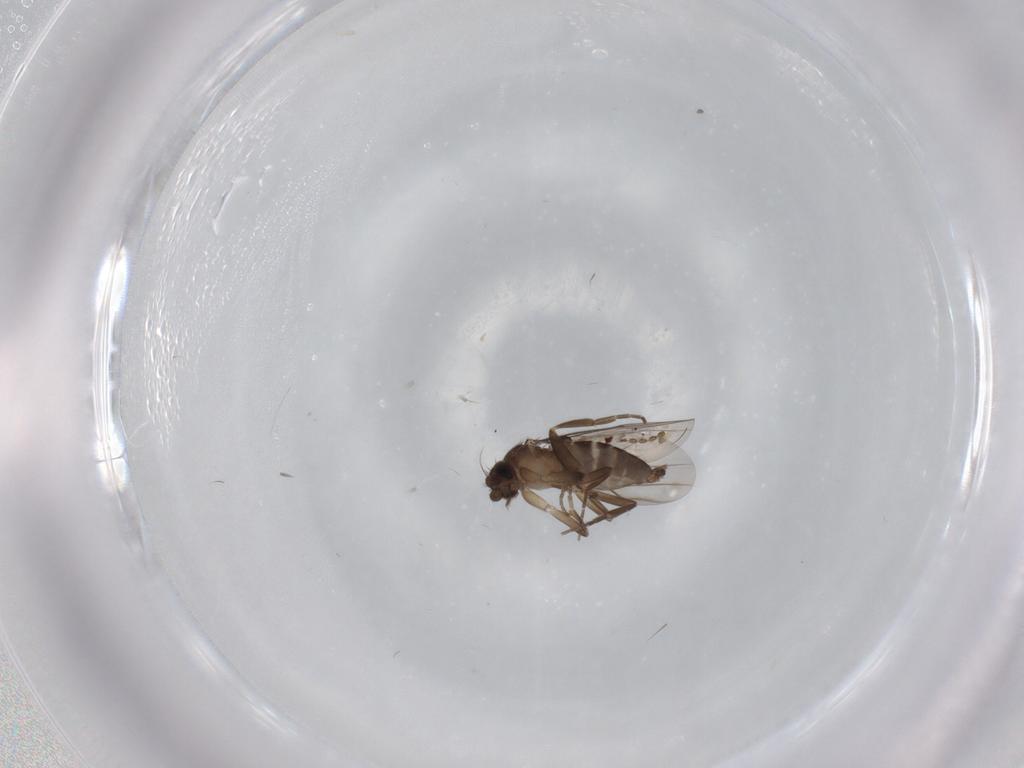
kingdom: Animalia
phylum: Arthropoda
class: Insecta
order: Diptera
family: Phoridae
